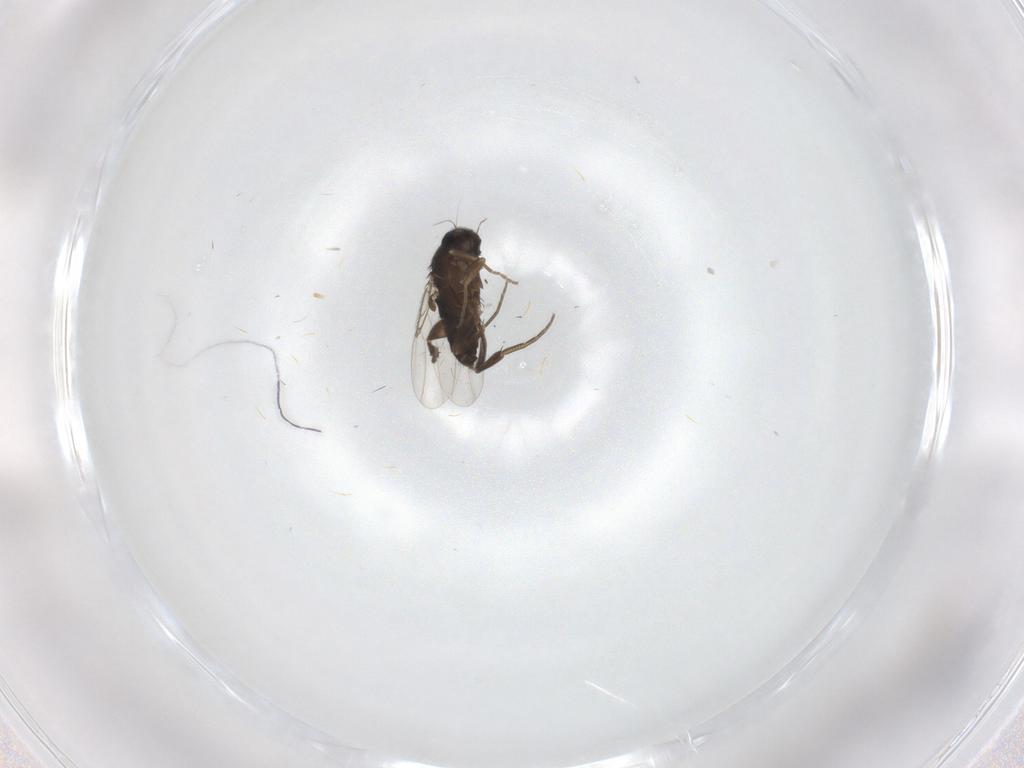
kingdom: Animalia
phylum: Arthropoda
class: Insecta
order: Diptera
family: Phoridae
